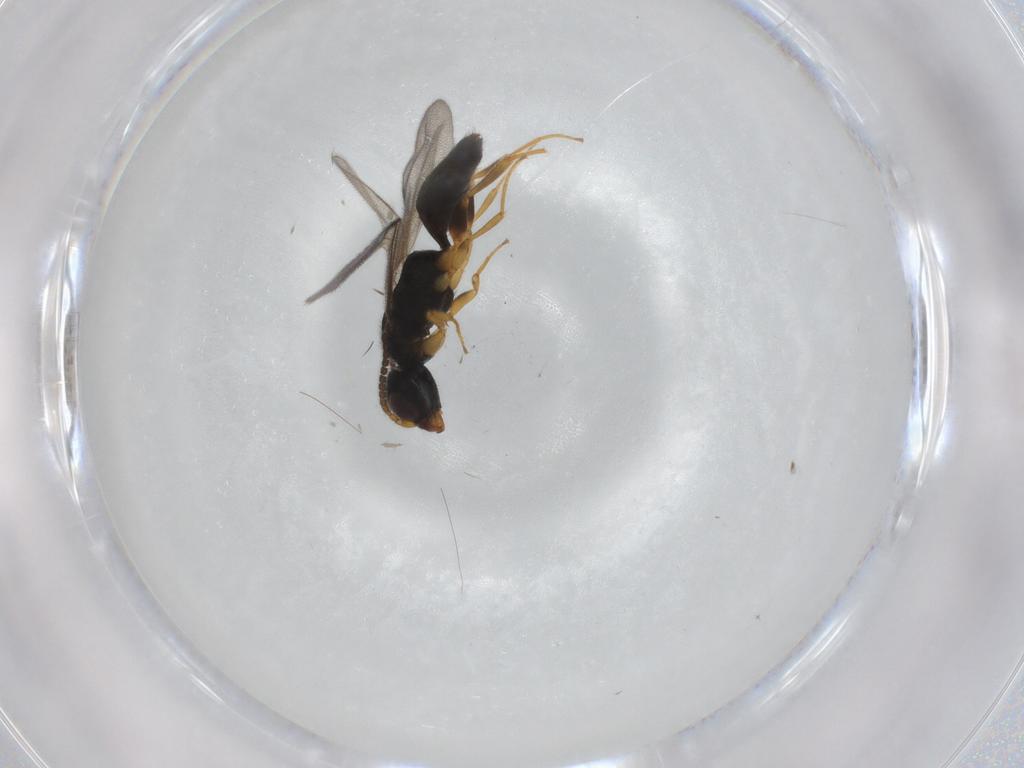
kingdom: Animalia
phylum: Arthropoda
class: Insecta
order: Hymenoptera
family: Bethylidae
